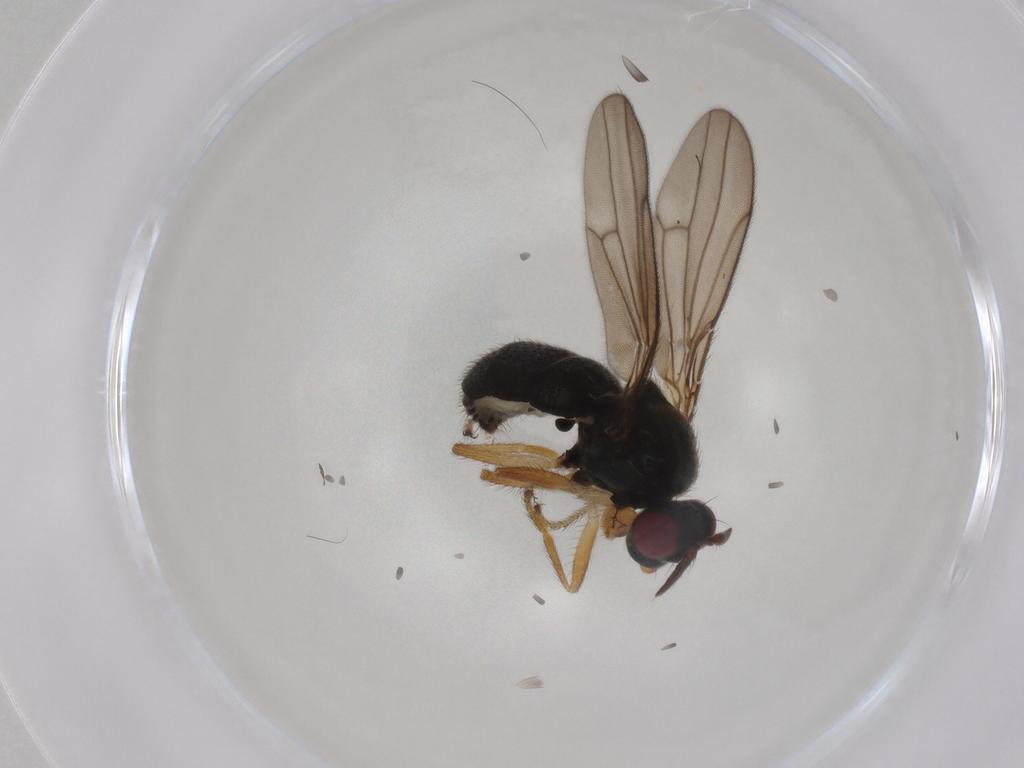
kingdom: Animalia
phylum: Arthropoda
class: Insecta
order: Diptera
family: Ephydridae
